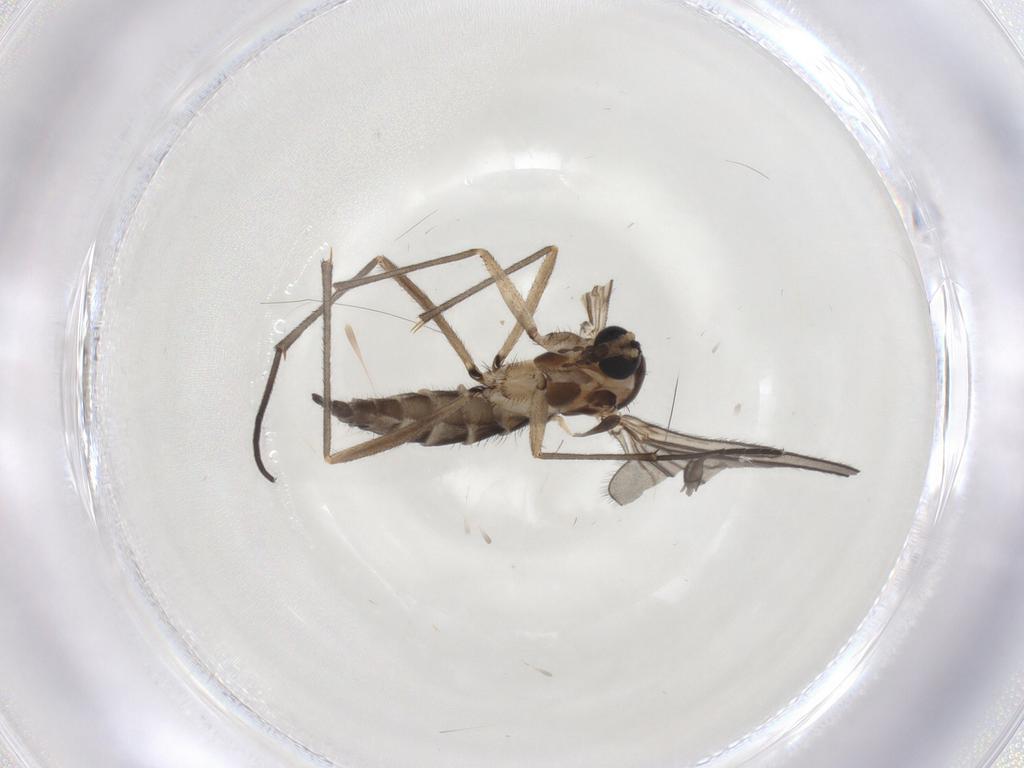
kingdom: Animalia
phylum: Arthropoda
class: Insecta
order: Diptera
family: Sciaridae
